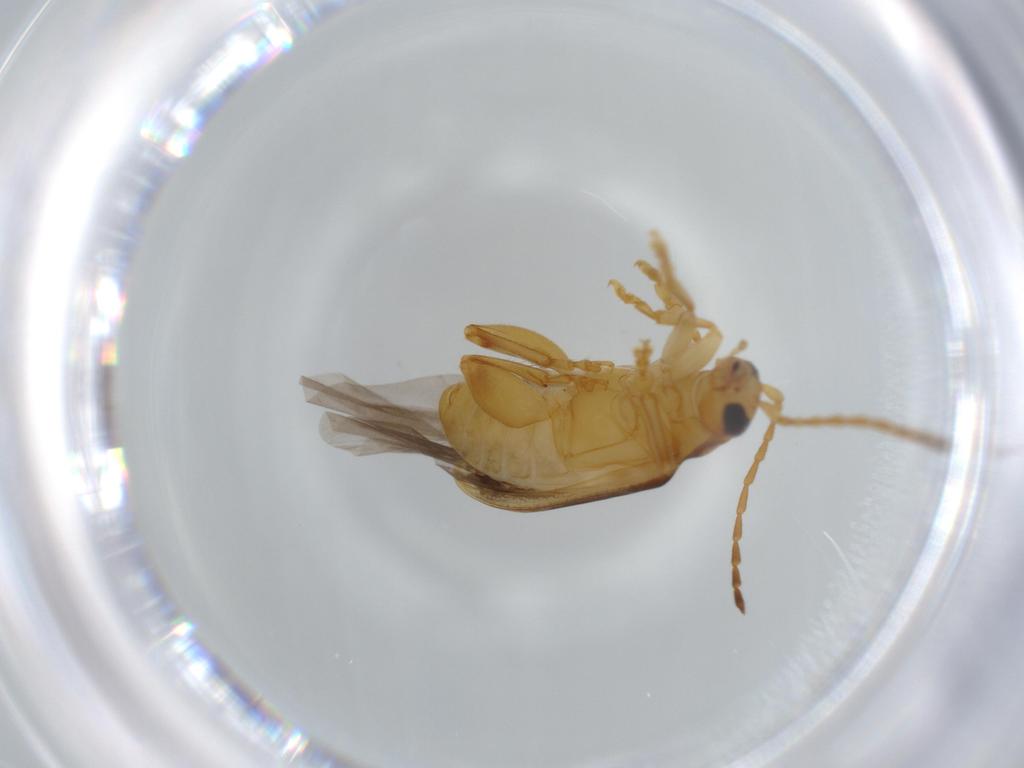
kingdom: Animalia
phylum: Arthropoda
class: Insecta
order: Coleoptera
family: Chrysomelidae
